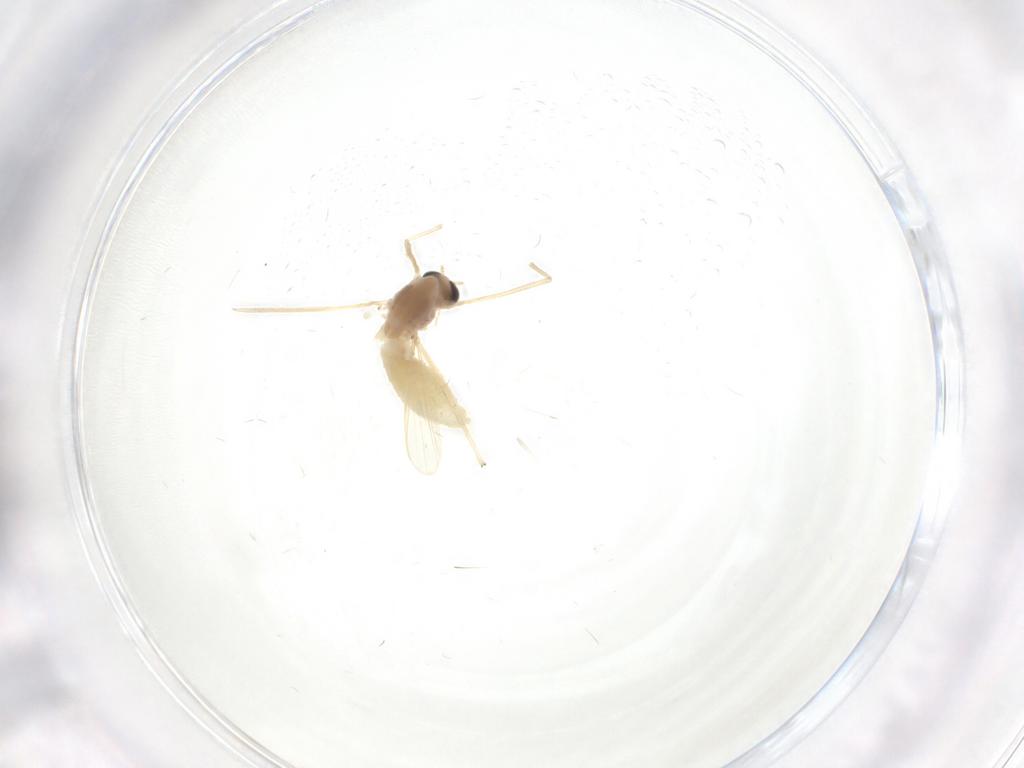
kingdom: Animalia
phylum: Arthropoda
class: Insecta
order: Diptera
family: Chironomidae
